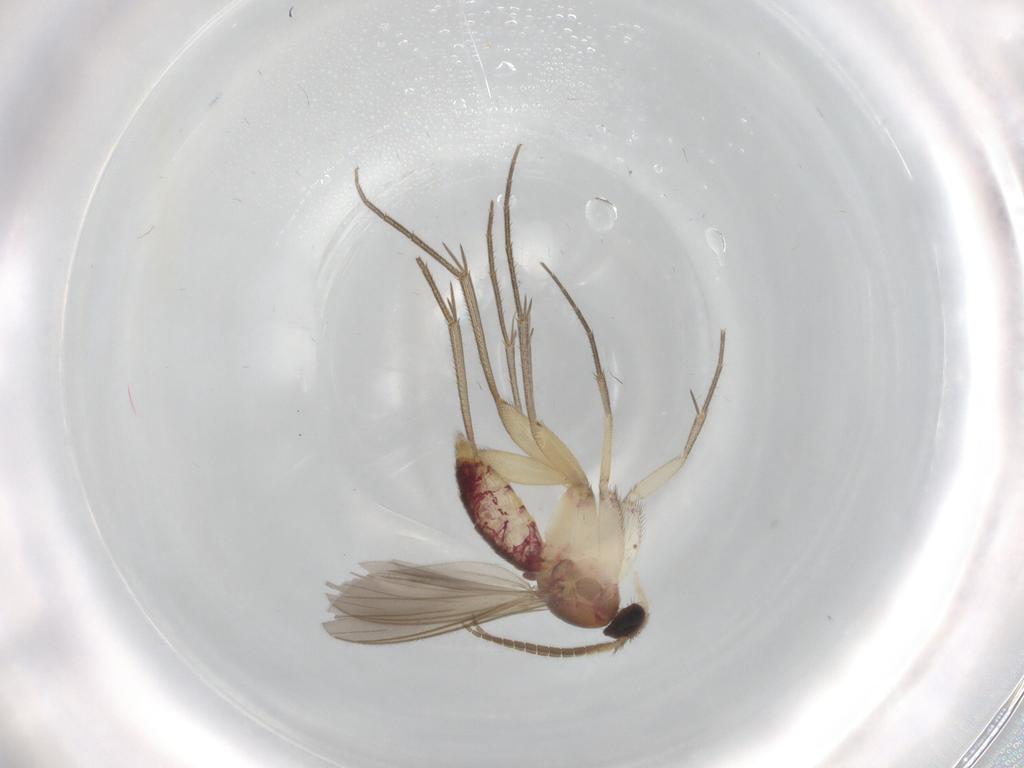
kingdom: Animalia
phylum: Arthropoda
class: Insecta
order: Diptera
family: Mycetophilidae
